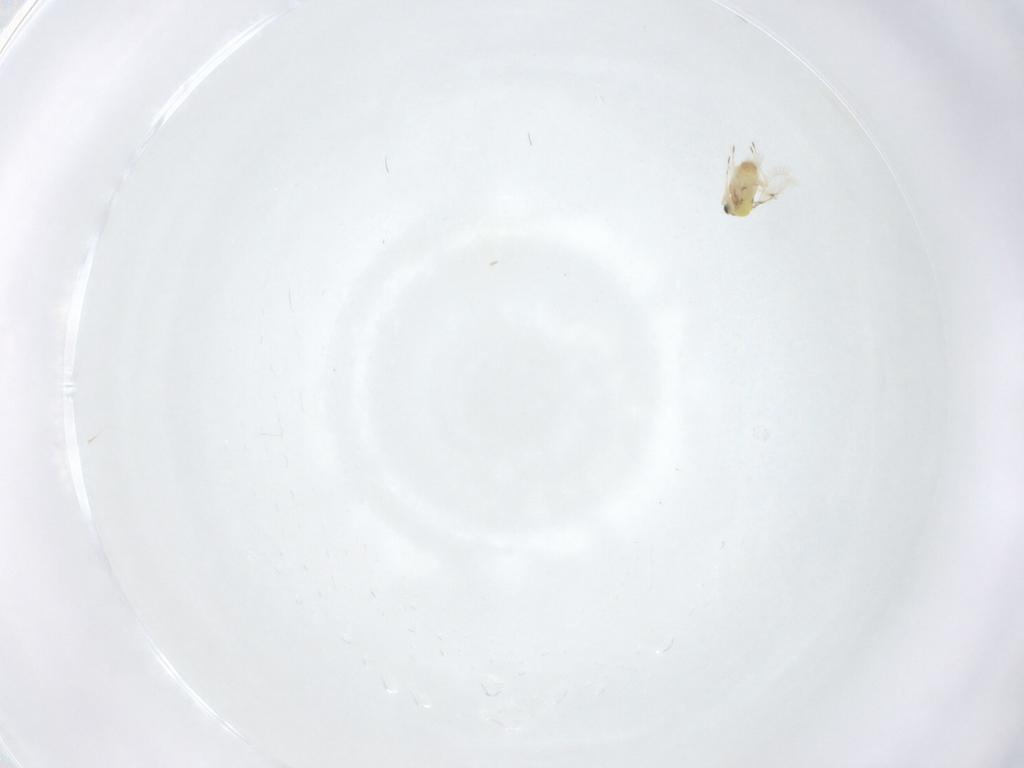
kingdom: Animalia
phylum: Arthropoda
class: Insecta
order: Hymenoptera
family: Trichogrammatidae
